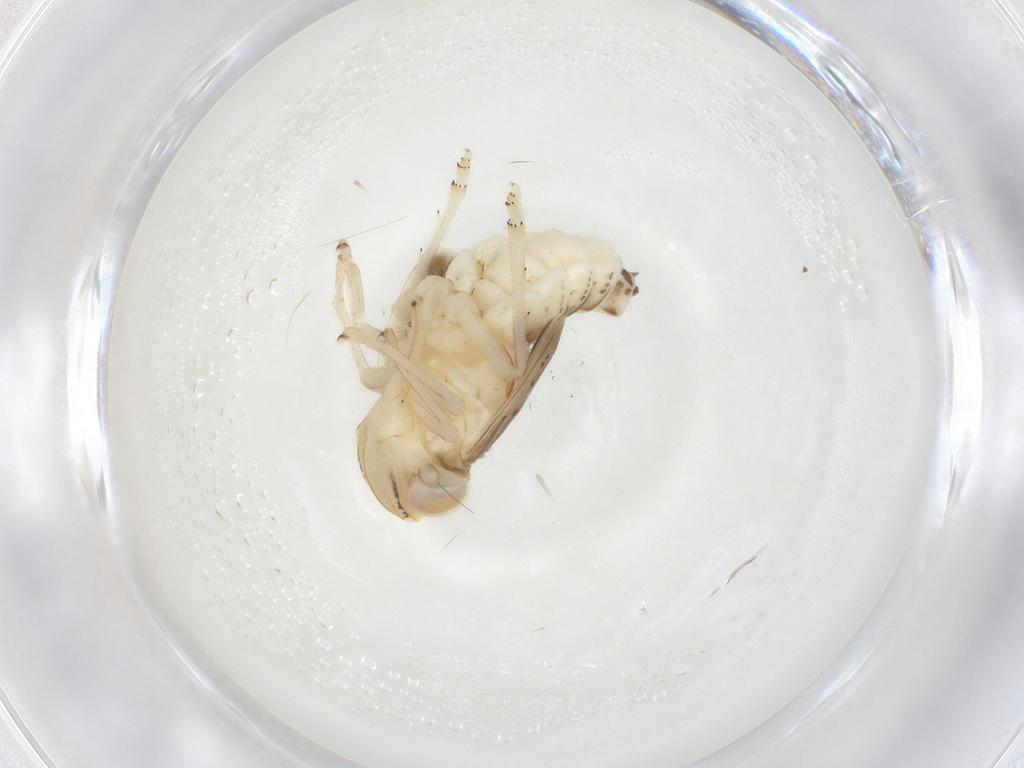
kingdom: Animalia
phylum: Arthropoda
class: Insecta
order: Hemiptera
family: Nogodinidae
